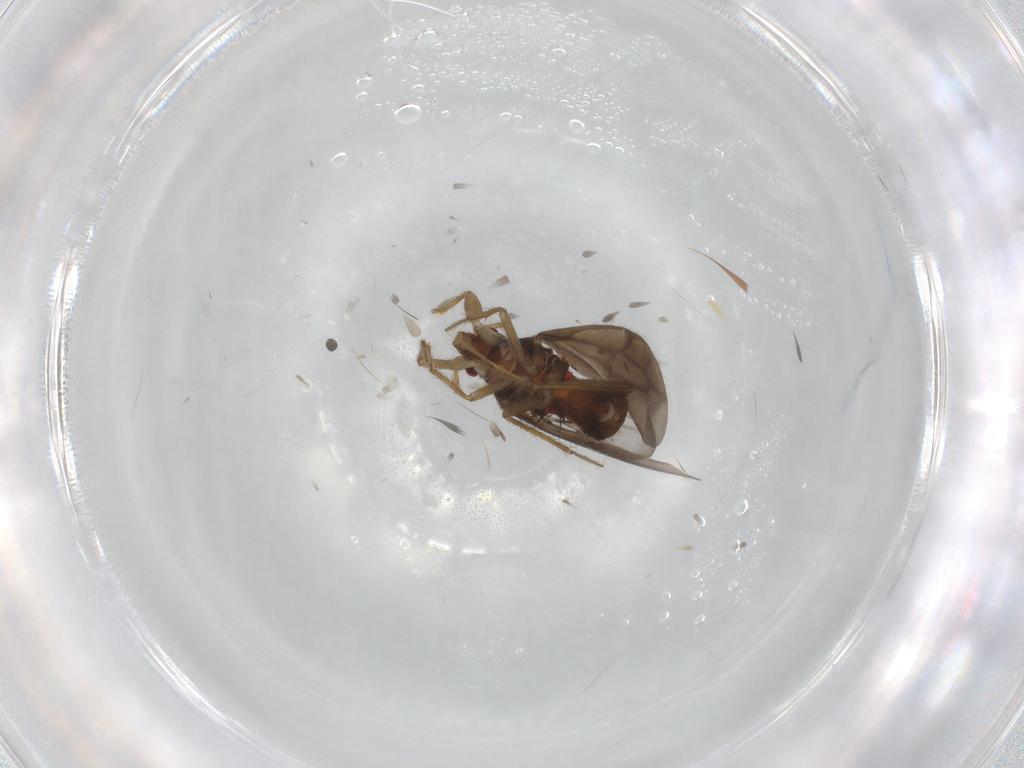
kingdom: Animalia
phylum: Arthropoda
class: Insecta
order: Hemiptera
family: Ceratocombidae
